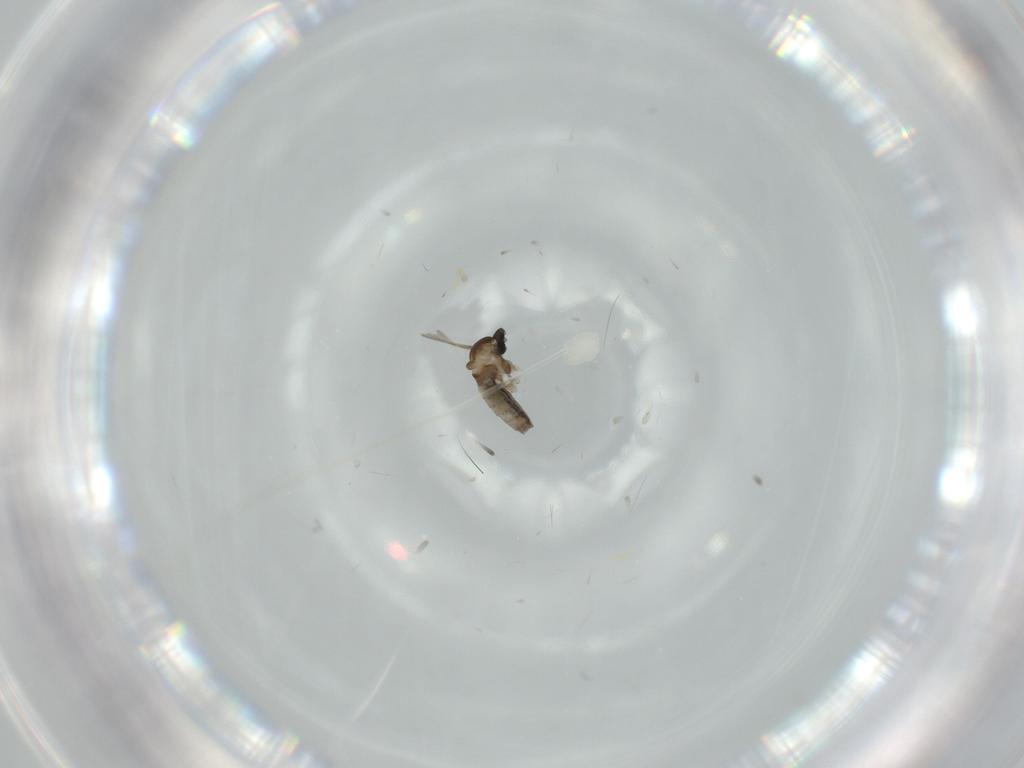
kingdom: Animalia
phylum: Arthropoda
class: Insecta
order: Diptera
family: Cecidomyiidae
